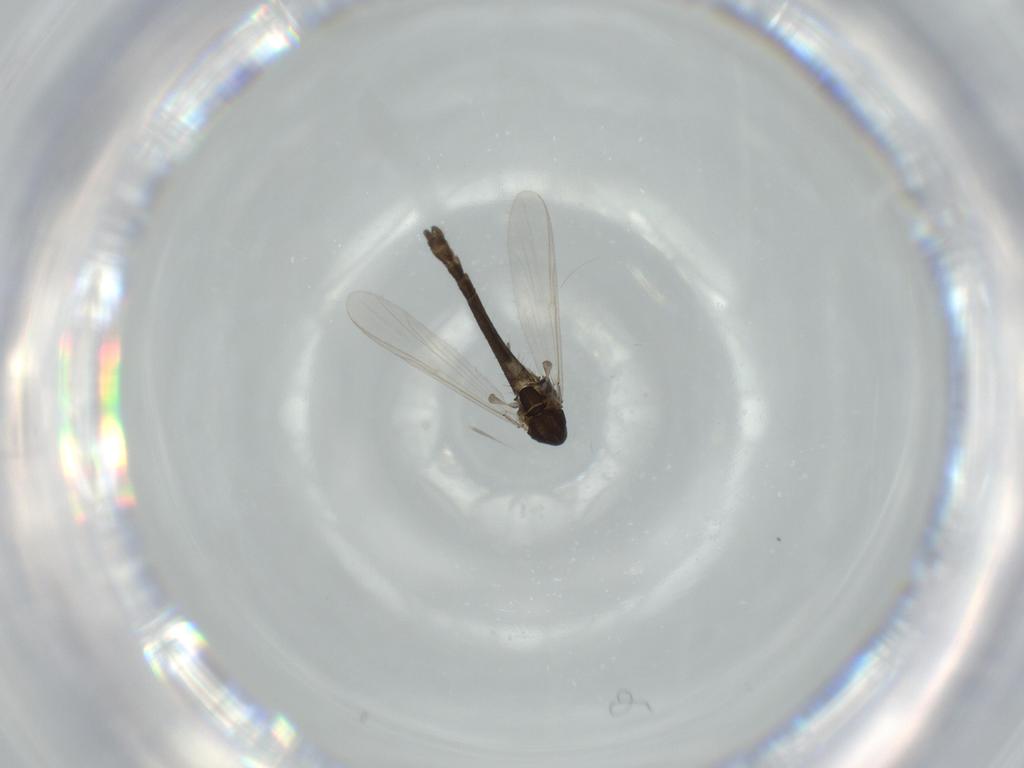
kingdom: Animalia
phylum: Arthropoda
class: Insecta
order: Diptera
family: Chironomidae
